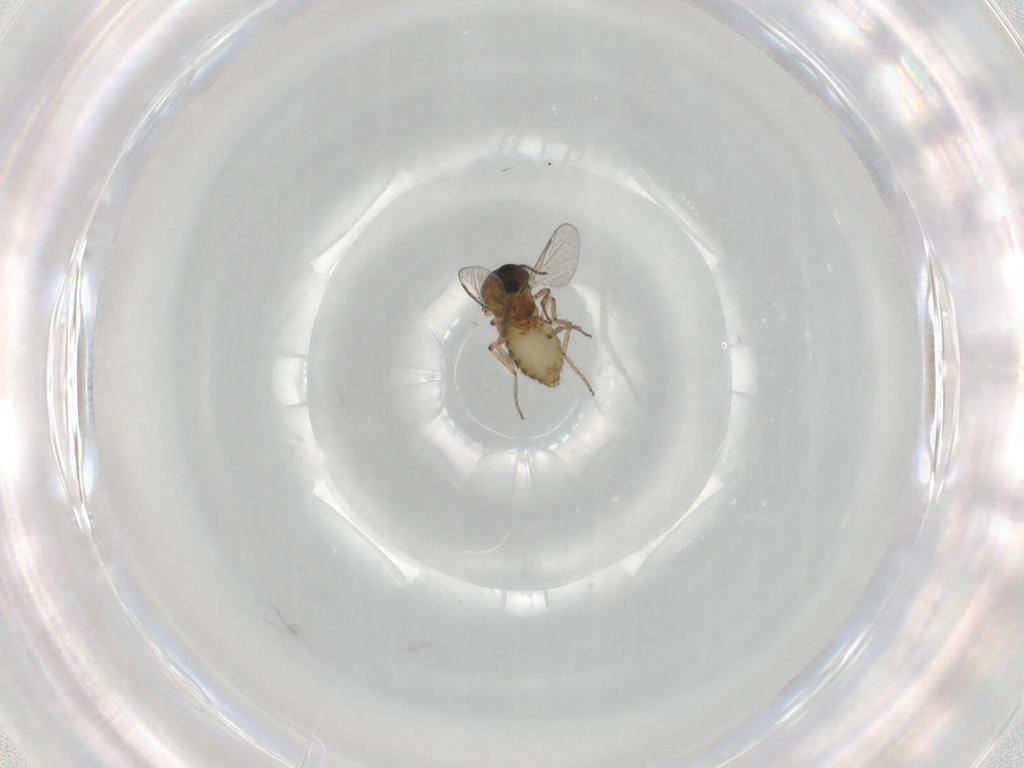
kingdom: Animalia
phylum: Arthropoda
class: Insecta
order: Diptera
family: Ceratopogonidae
